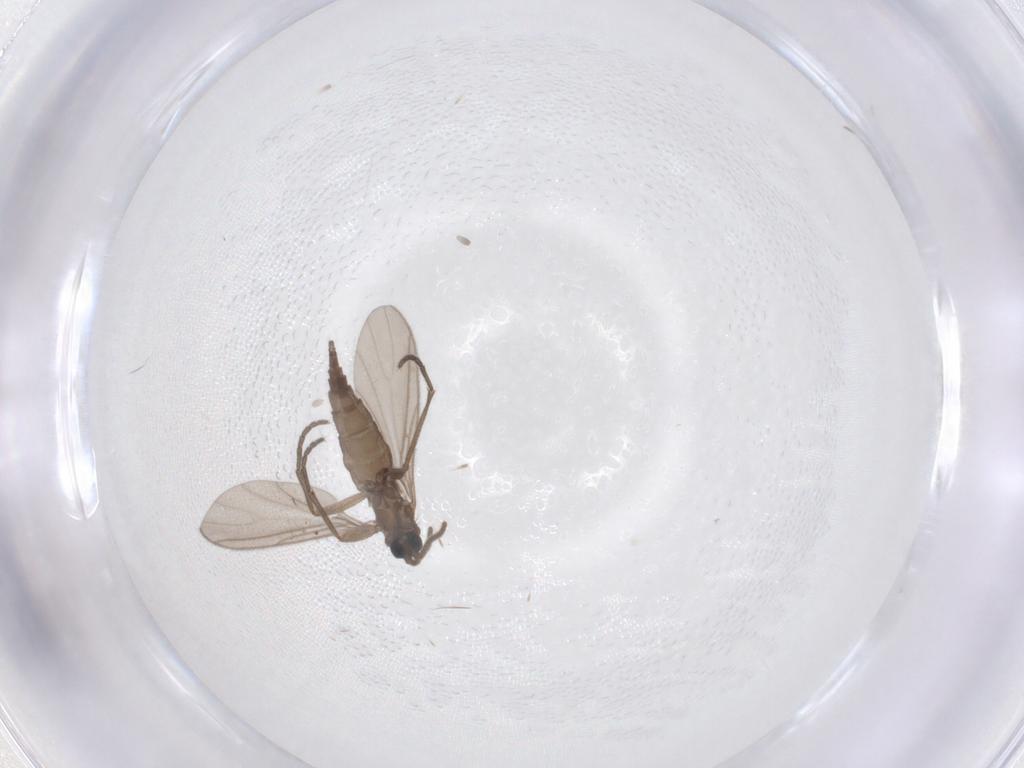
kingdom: Animalia
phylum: Arthropoda
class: Insecta
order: Diptera
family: Sciaridae
